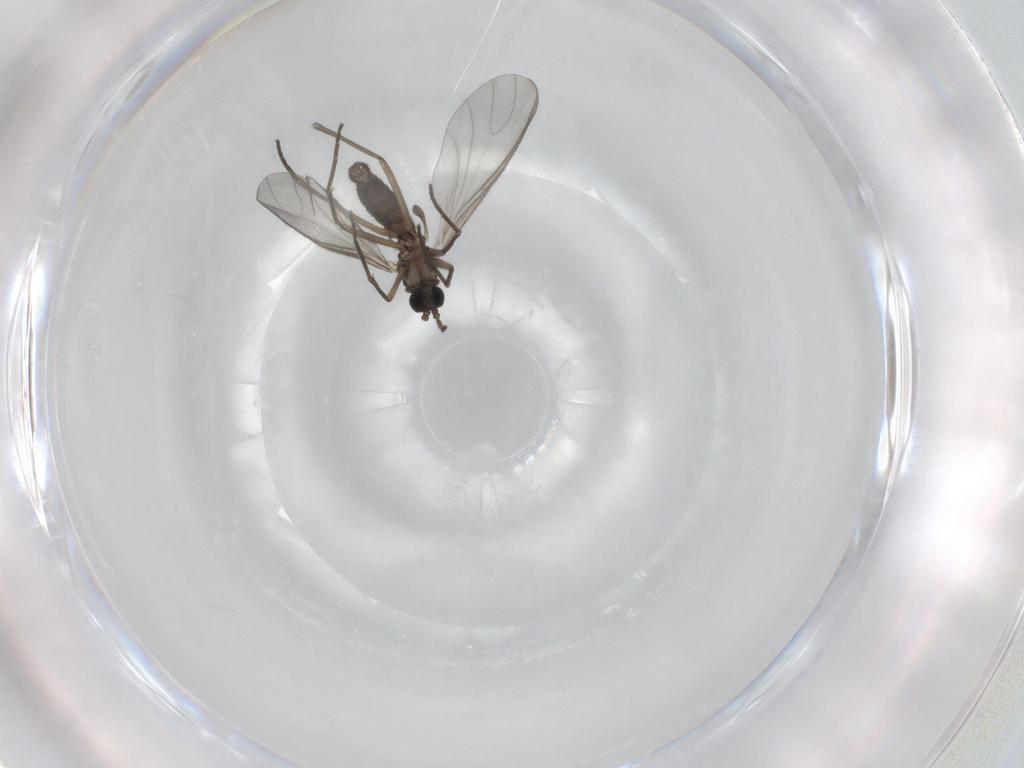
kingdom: Animalia
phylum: Arthropoda
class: Insecta
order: Diptera
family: Sciaridae
